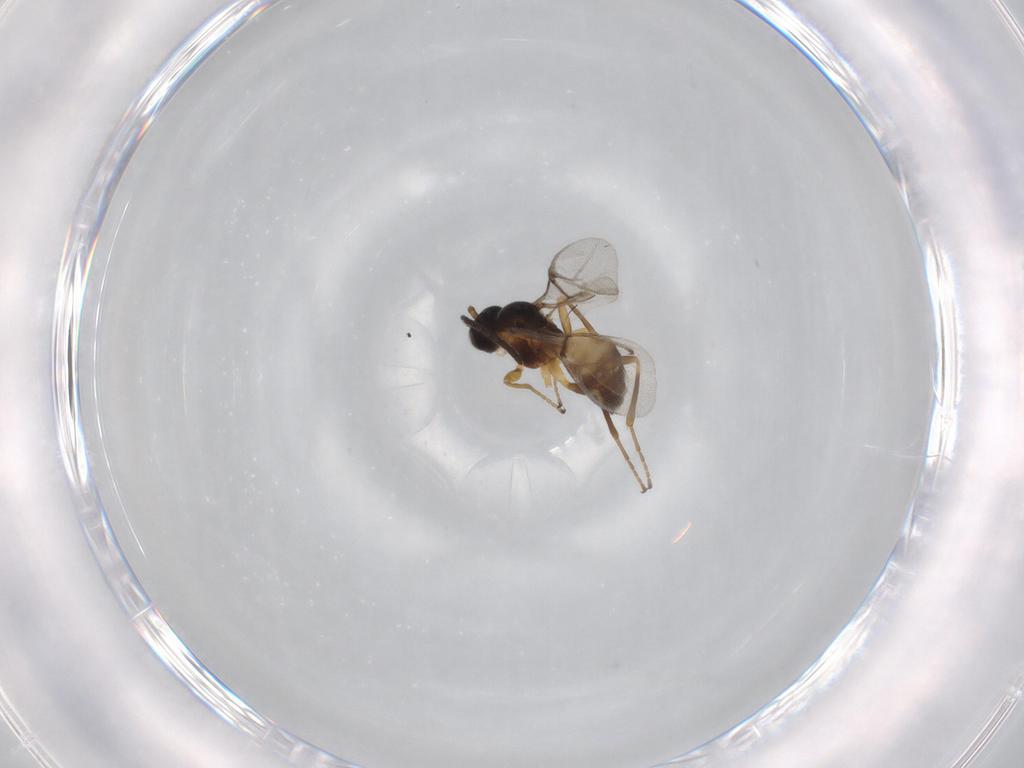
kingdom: Animalia
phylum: Arthropoda
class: Insecta
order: Hymenoptera
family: Braconidae
